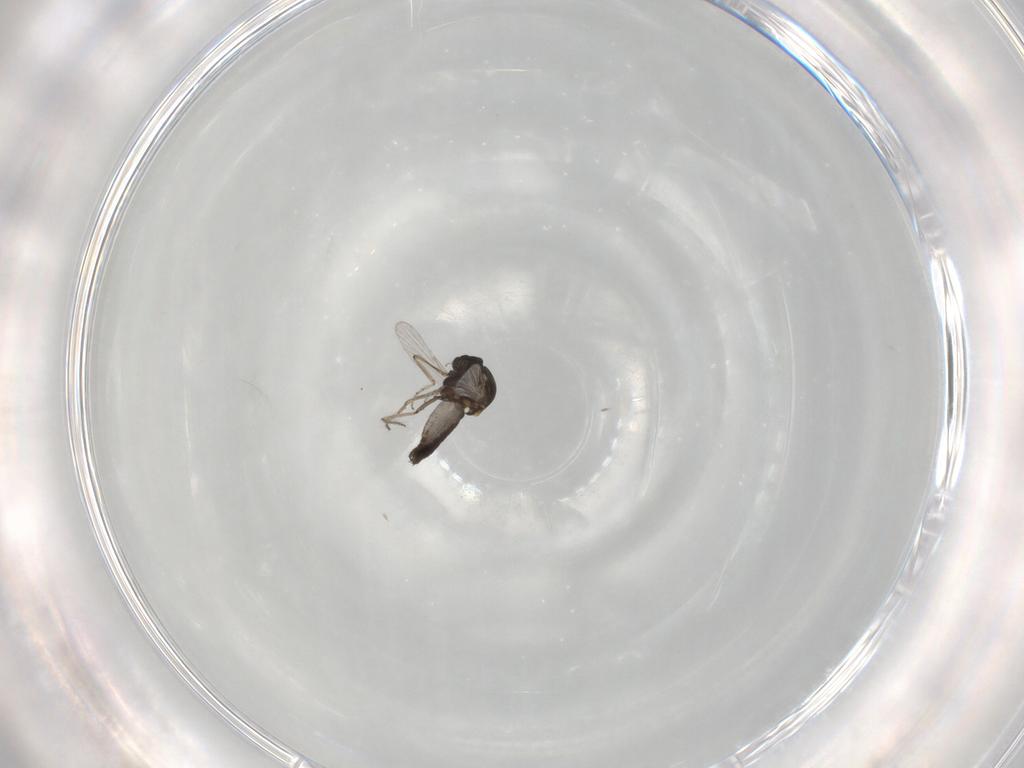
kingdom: Animalia
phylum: Arthropoda
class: Insecta
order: Diptera
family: Ceratopogonidae
